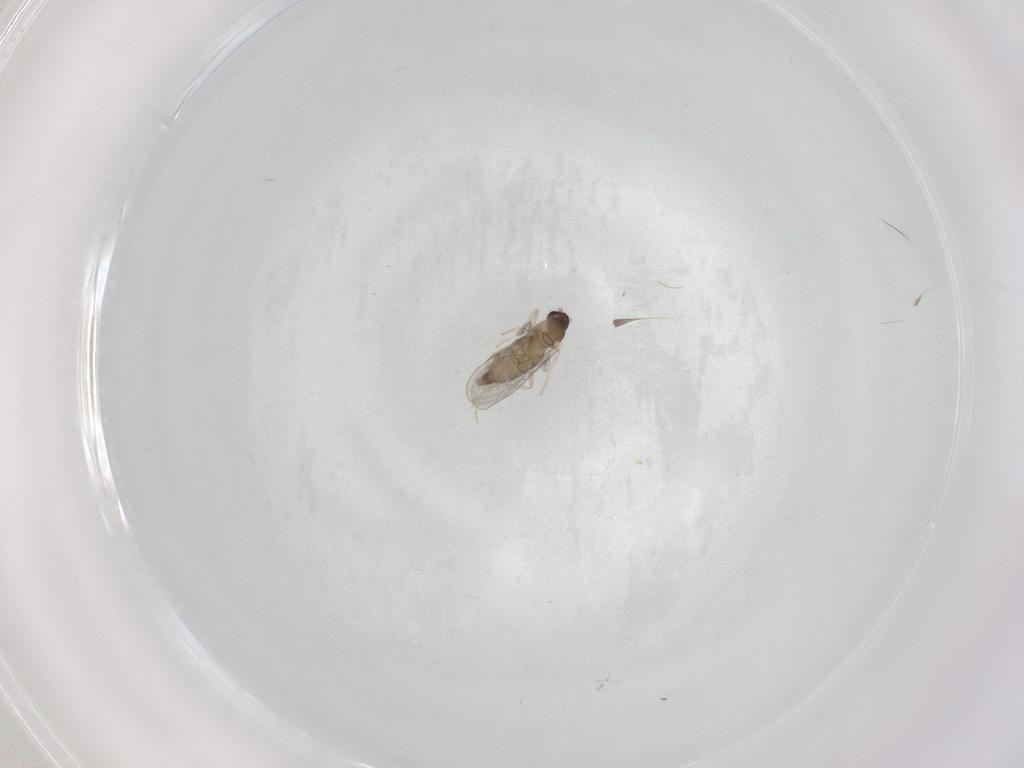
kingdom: Animalia
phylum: Arthropoda
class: Insecta
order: Diptera
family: Cecidomyiidae
